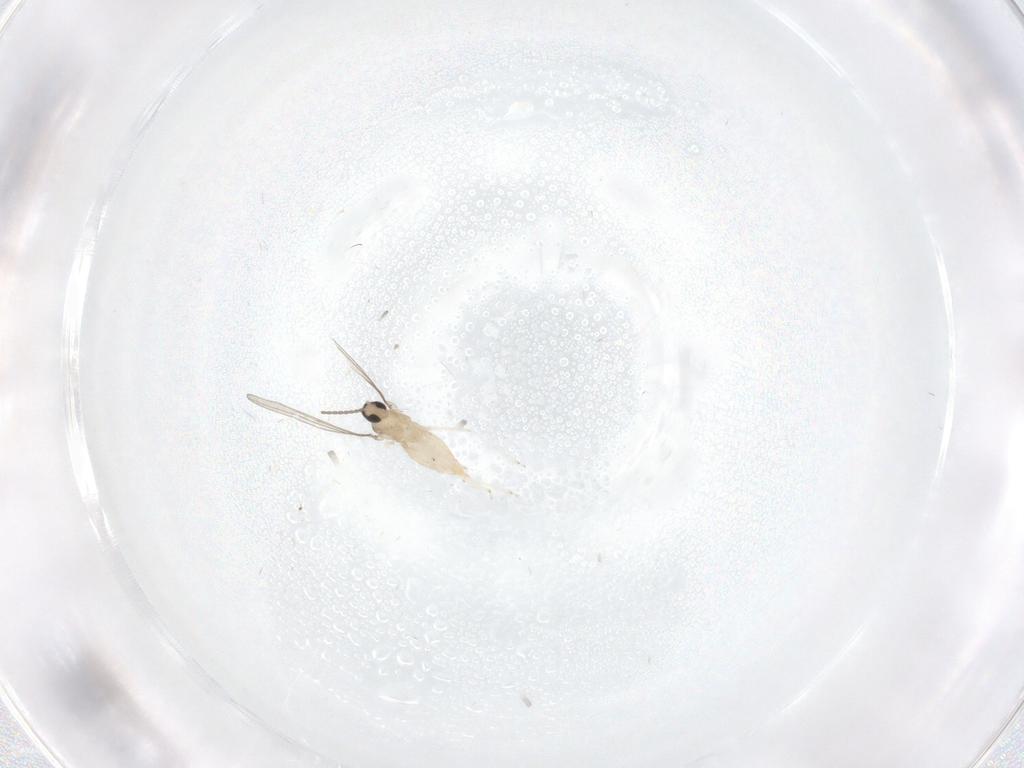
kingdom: Animalia
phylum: Arthropoda
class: Insecta
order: Diptera
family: Cecidomyiidae
